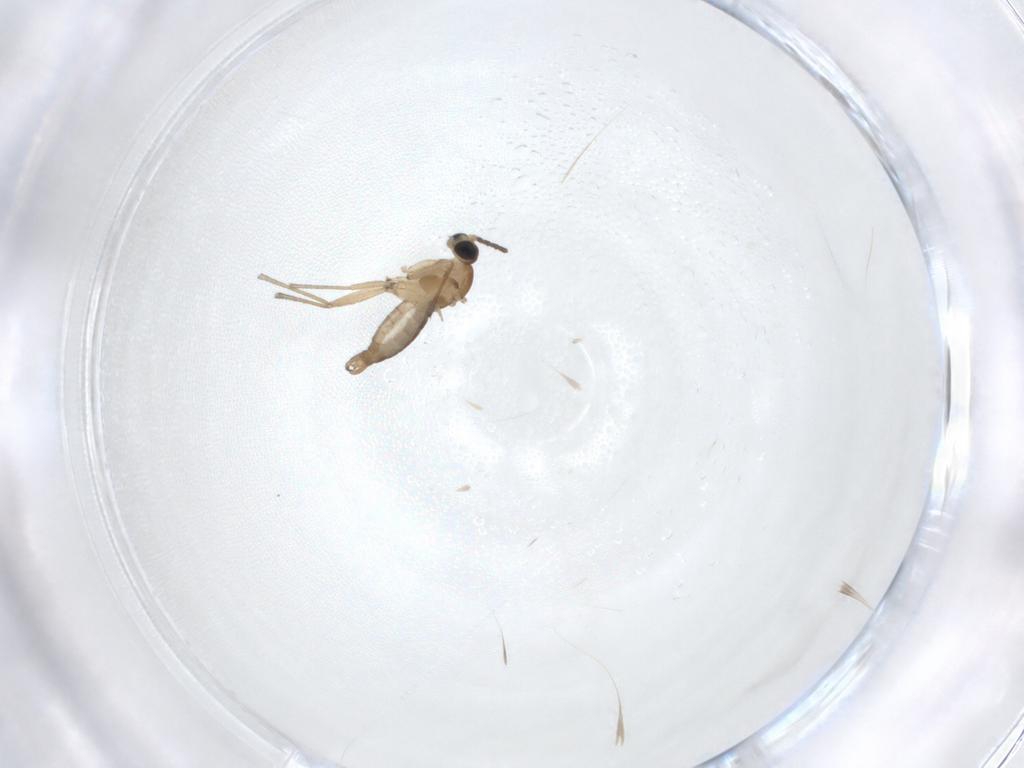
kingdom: Animalia
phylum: Arthropoda
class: Insecta
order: Diptera
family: Sciaridae
